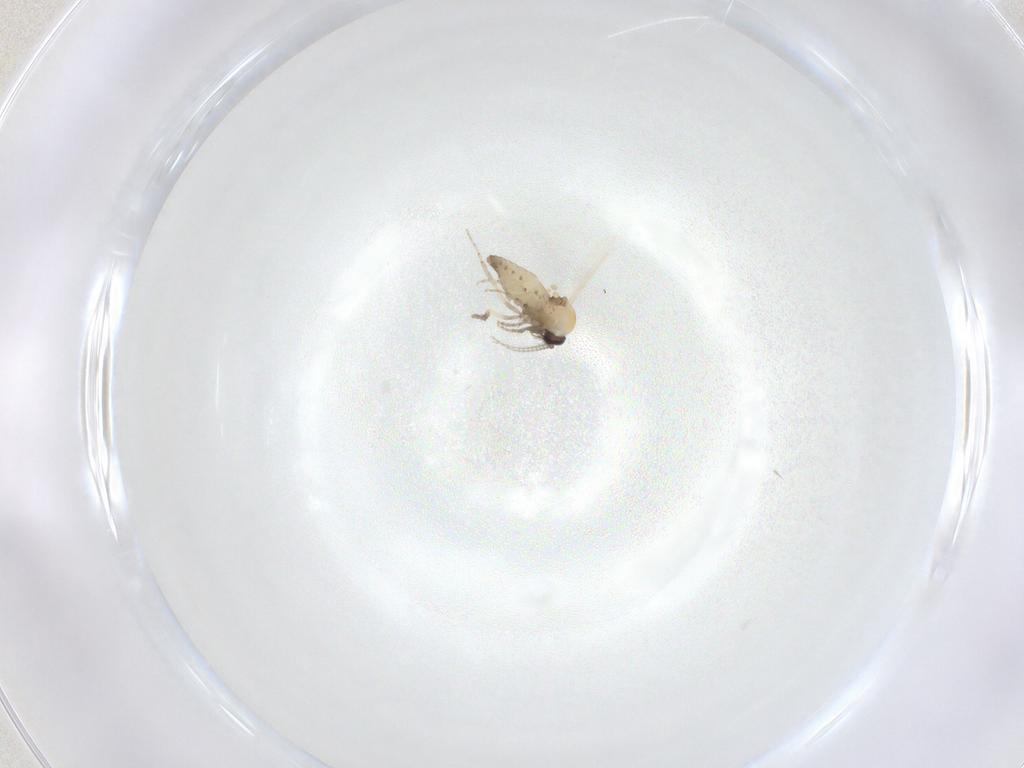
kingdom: Animalia
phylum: Arthropoda
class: Insecta
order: Diptera
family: Ceratopogonidae
